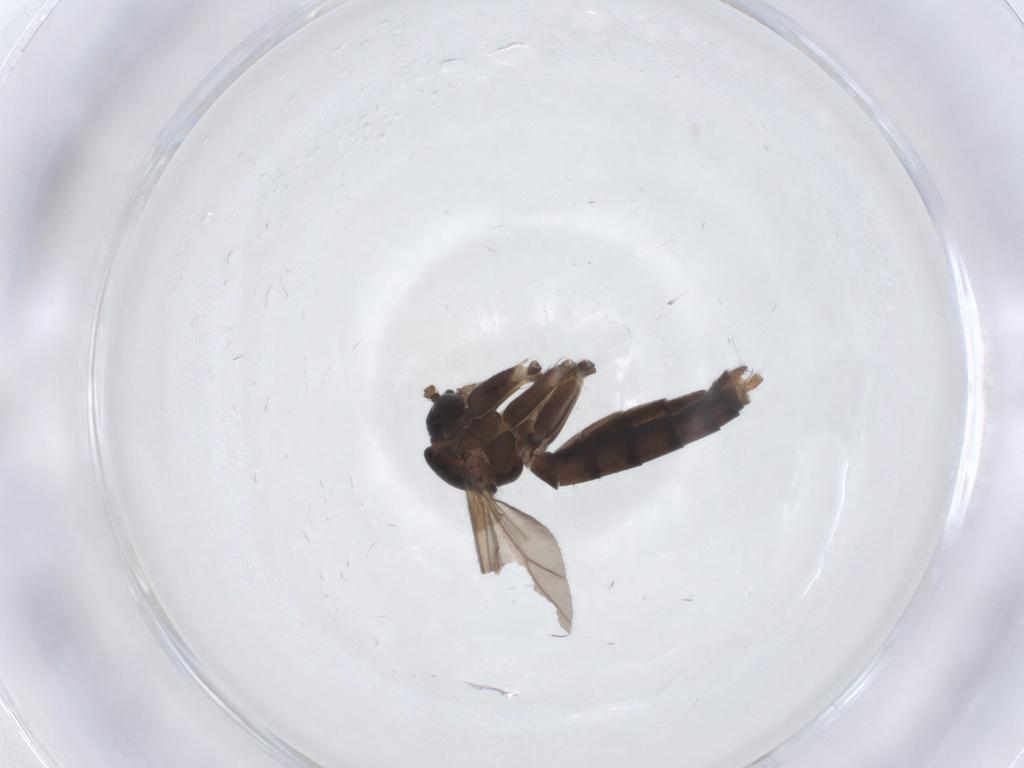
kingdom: Animalia
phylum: Arthropoda
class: Insecta
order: Diptera
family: Mycetophilidae
